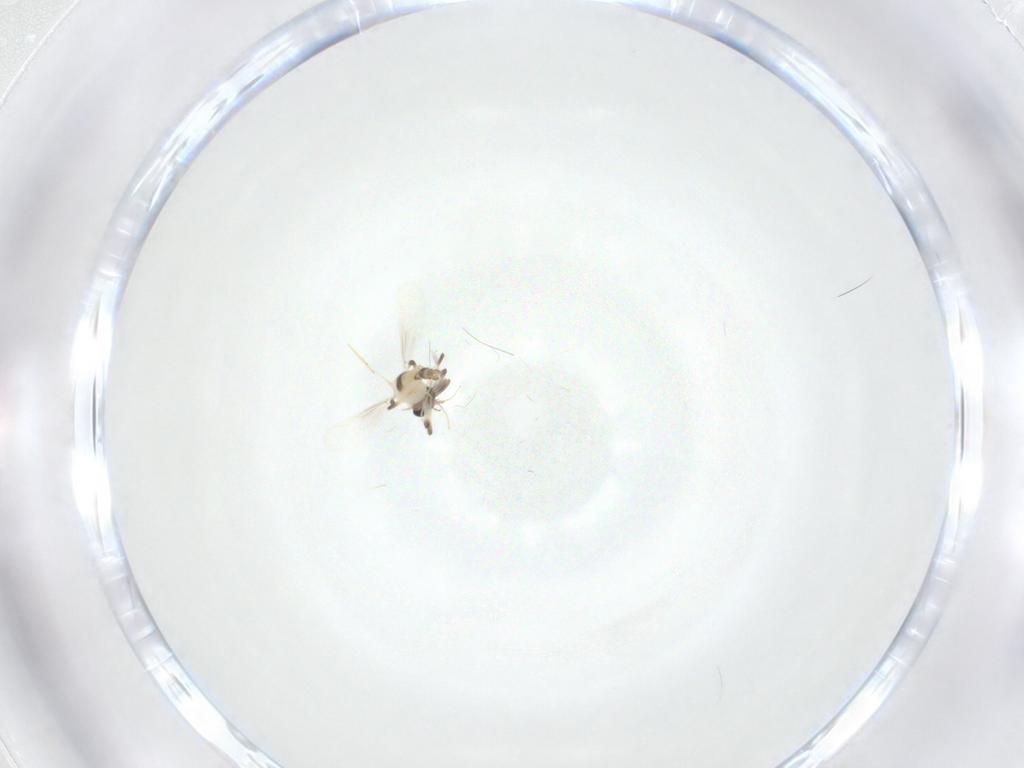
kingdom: Animalia
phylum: Arthropoda
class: Insecta
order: Diptera
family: Chironomidae
